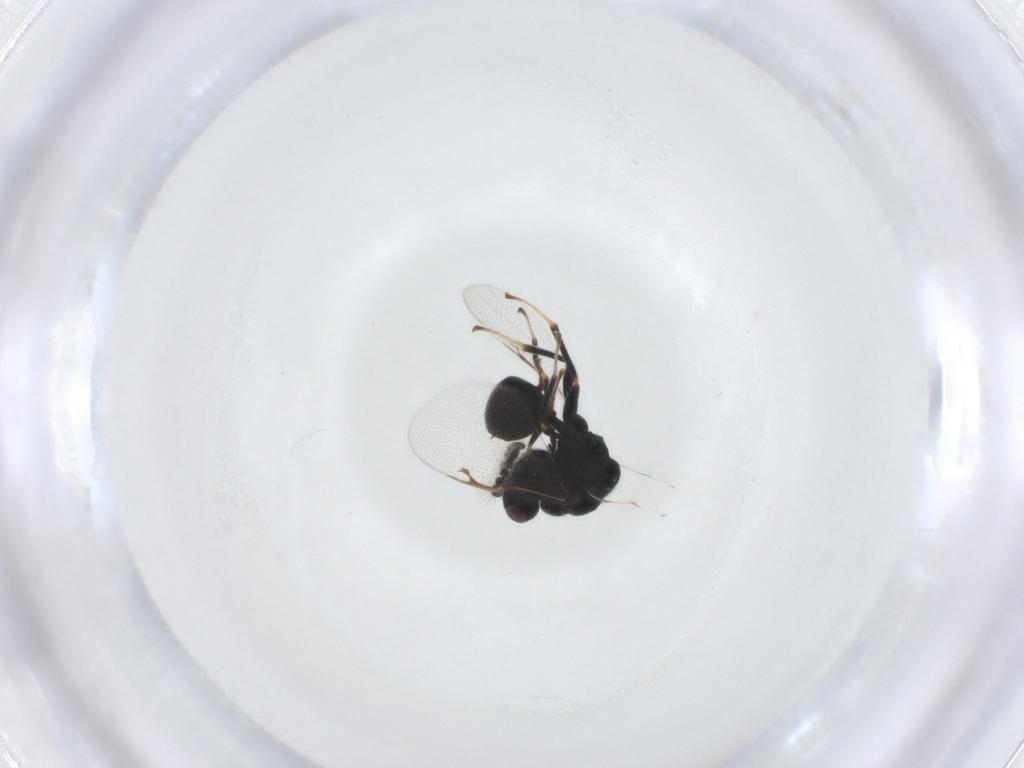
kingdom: Animalia
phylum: Arthropoda
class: Insecta
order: Hymenoptera
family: Eurytomidae
